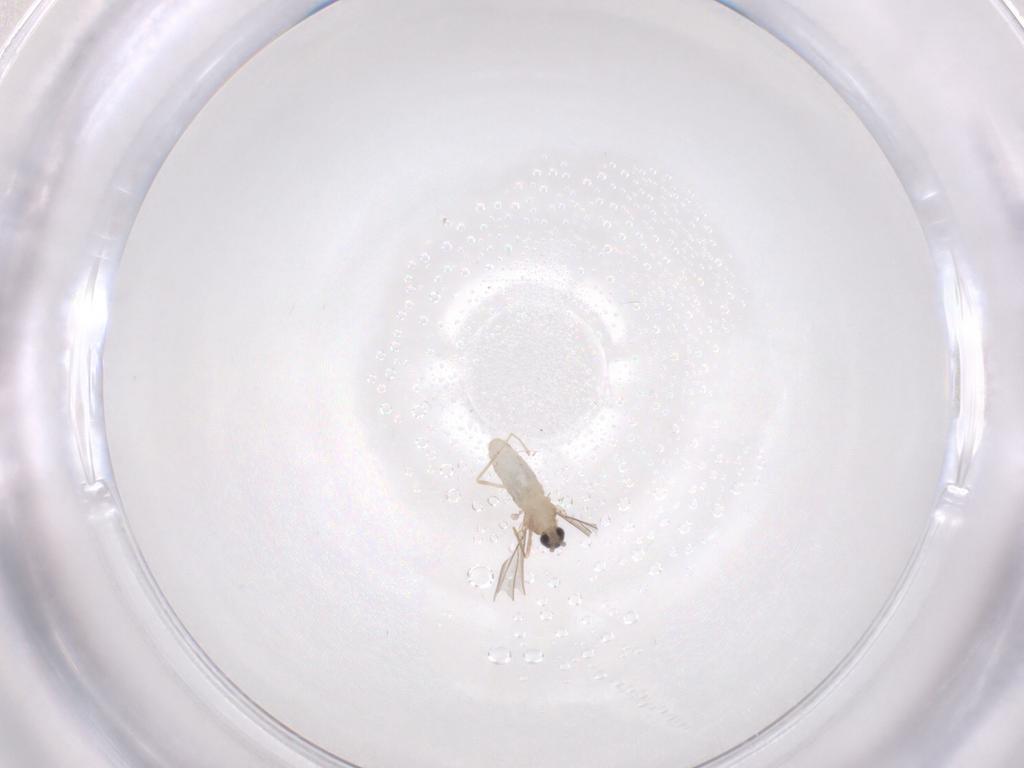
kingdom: Animalia
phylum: Arthropoda
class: Insecta
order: Diptera
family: Cecidomyiidae
